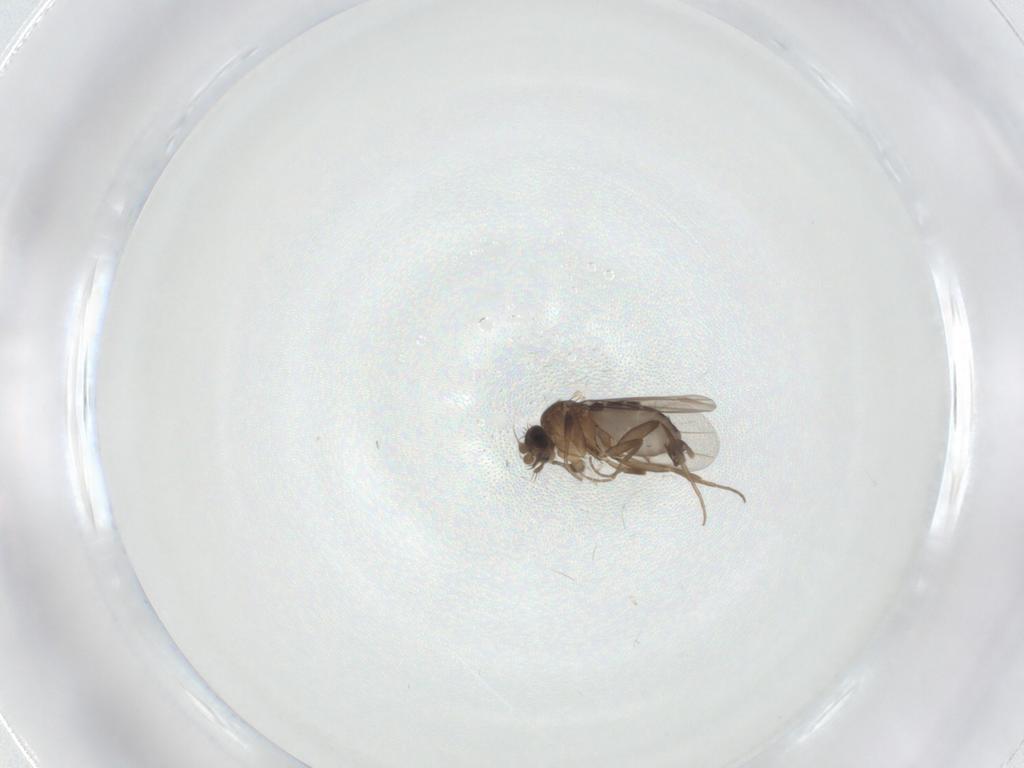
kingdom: Animalia
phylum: Arthropoda
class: Insecta
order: Diptera
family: Phoridae
